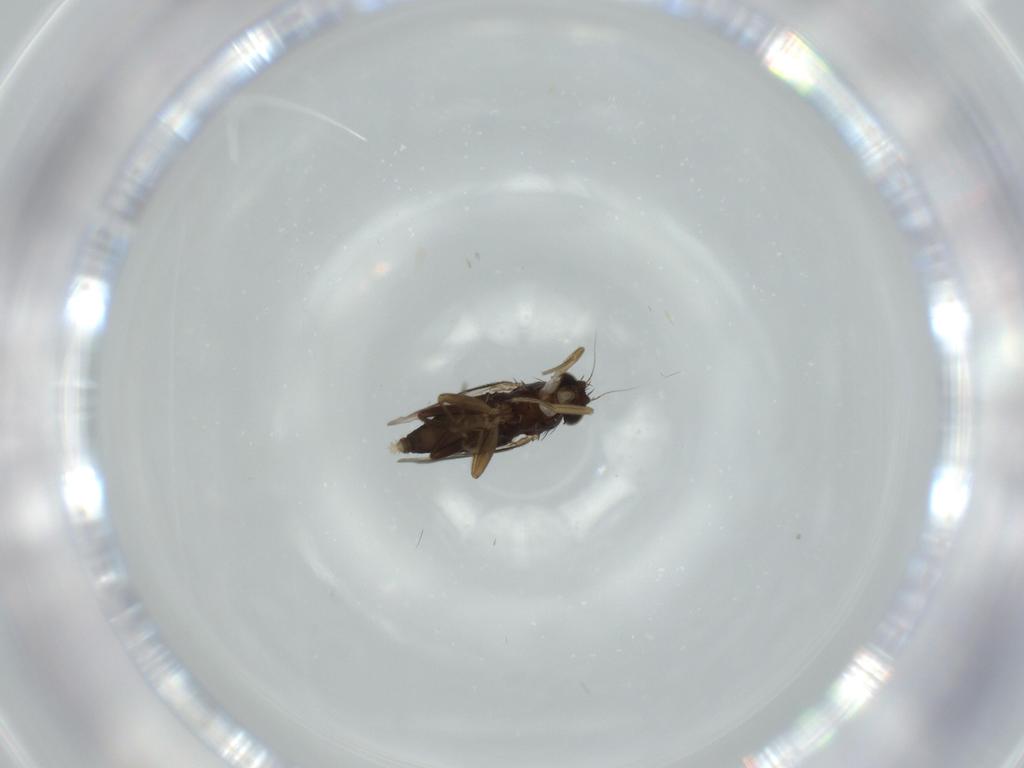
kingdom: Animalia
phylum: Arthropoda
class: Insecta
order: Diptera
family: Phoridae
